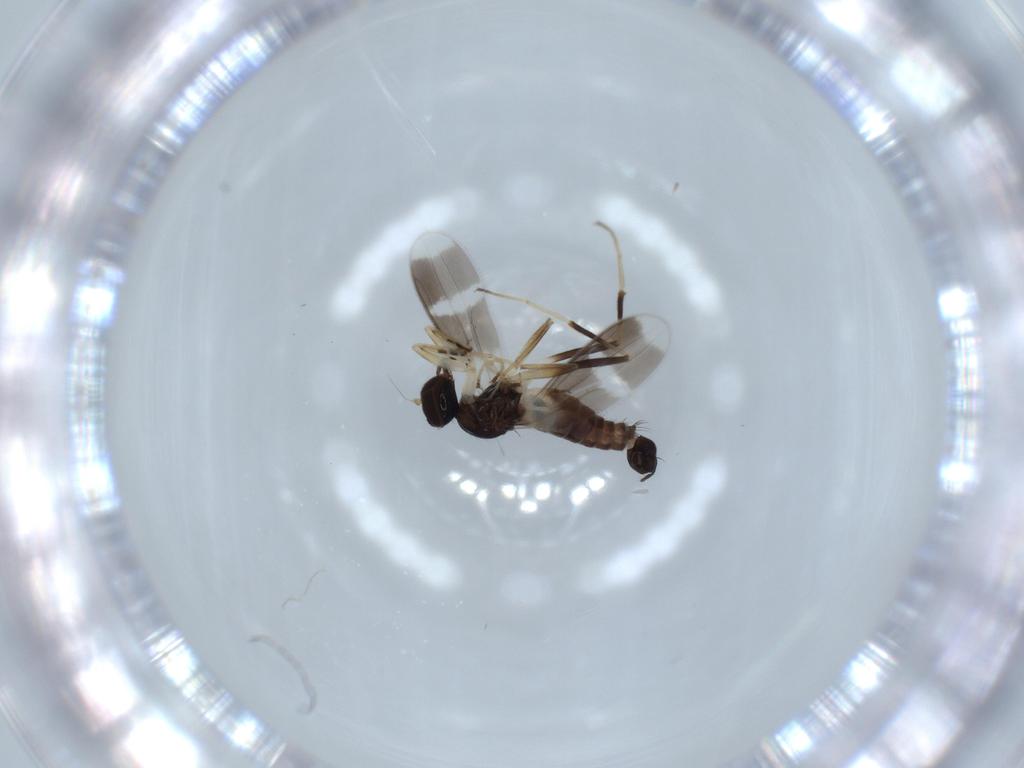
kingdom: Animalia
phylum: Arthropoda
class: Insecta
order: Diptera
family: Hybotidae
